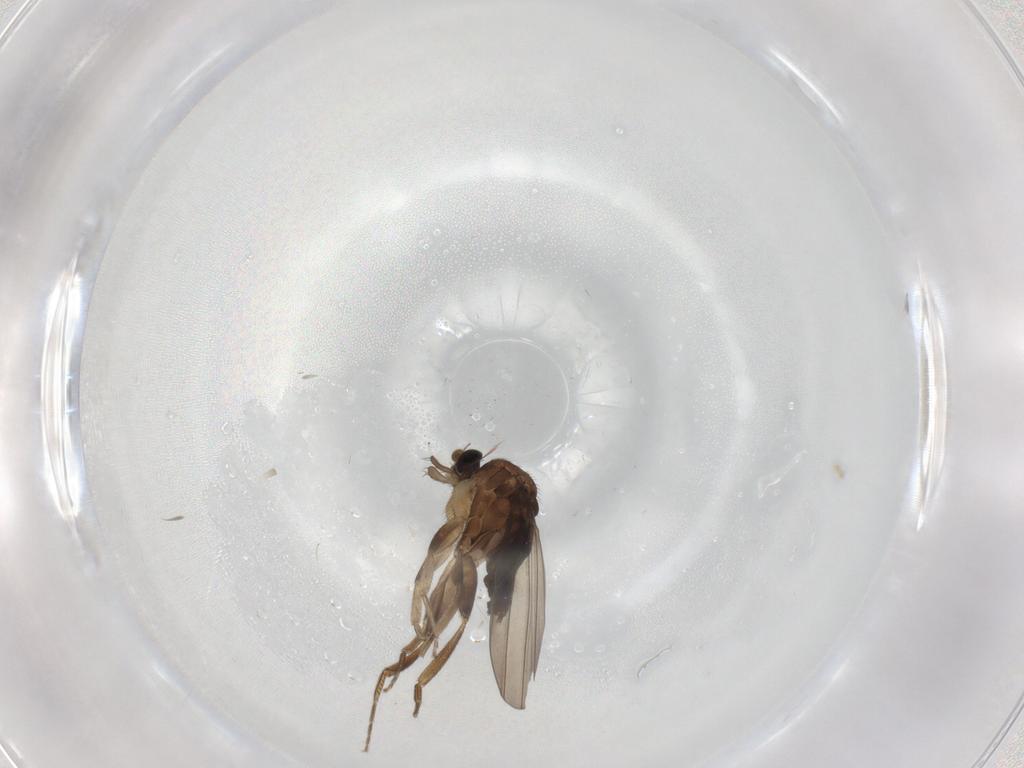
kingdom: Animalia
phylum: Arthropoda
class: Insecta
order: Diptera
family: Phoridae
